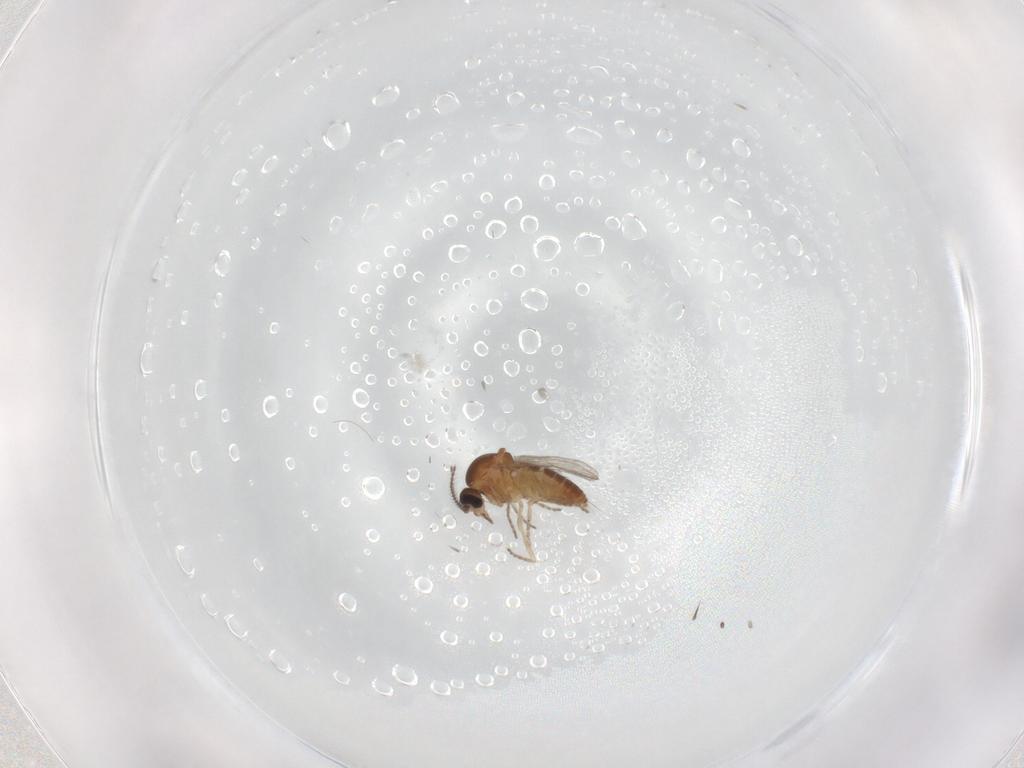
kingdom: Animalia
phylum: Arthropoda
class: Insecta
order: Diptera
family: Ceratopogonidae
